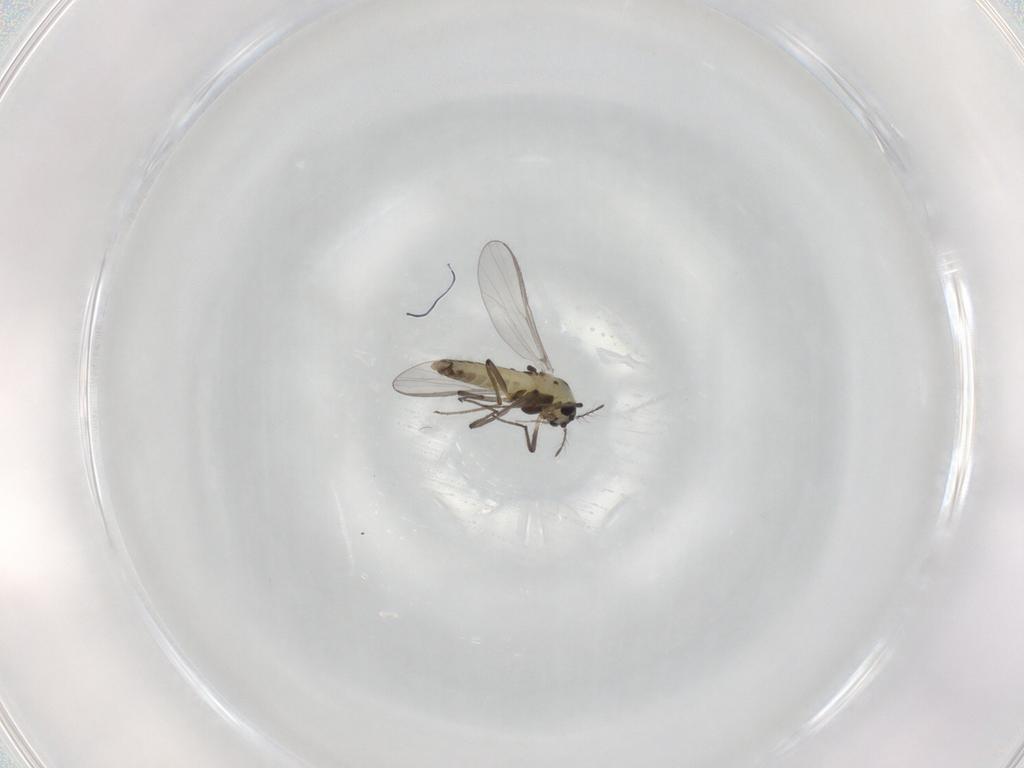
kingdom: Animalia
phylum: Arthropoda
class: Insecta
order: Diptera
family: Chironomidae
